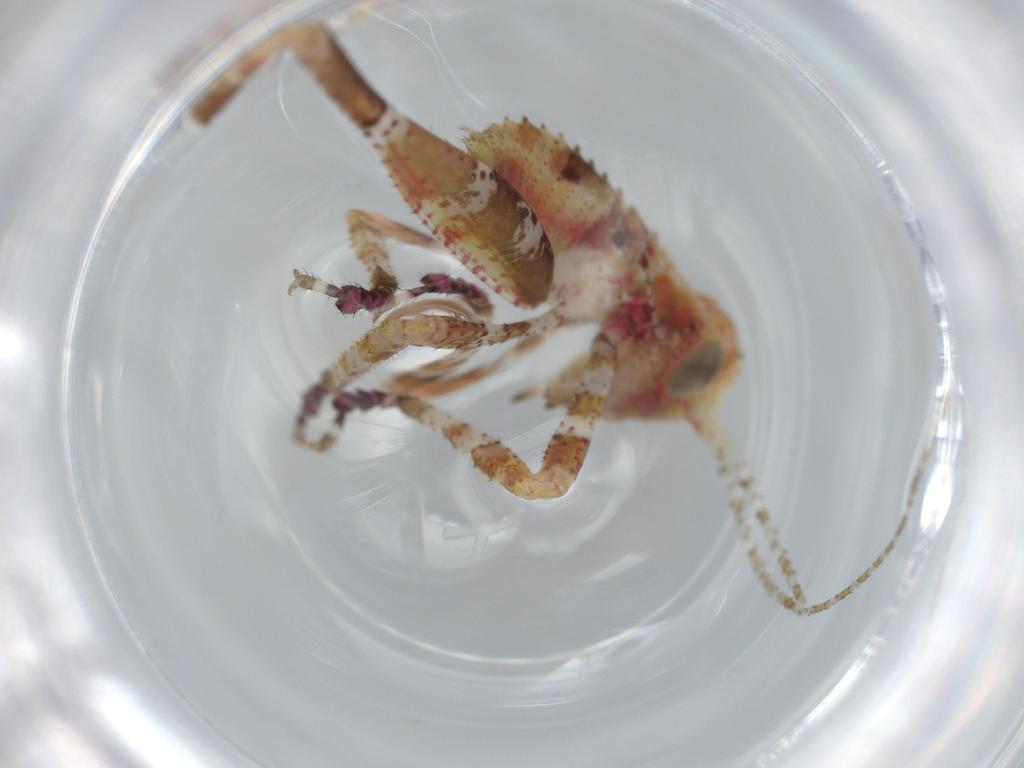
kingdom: Animalia
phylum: Arthropoda
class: Insecta
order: Orthoptera
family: Tettigoniidae
